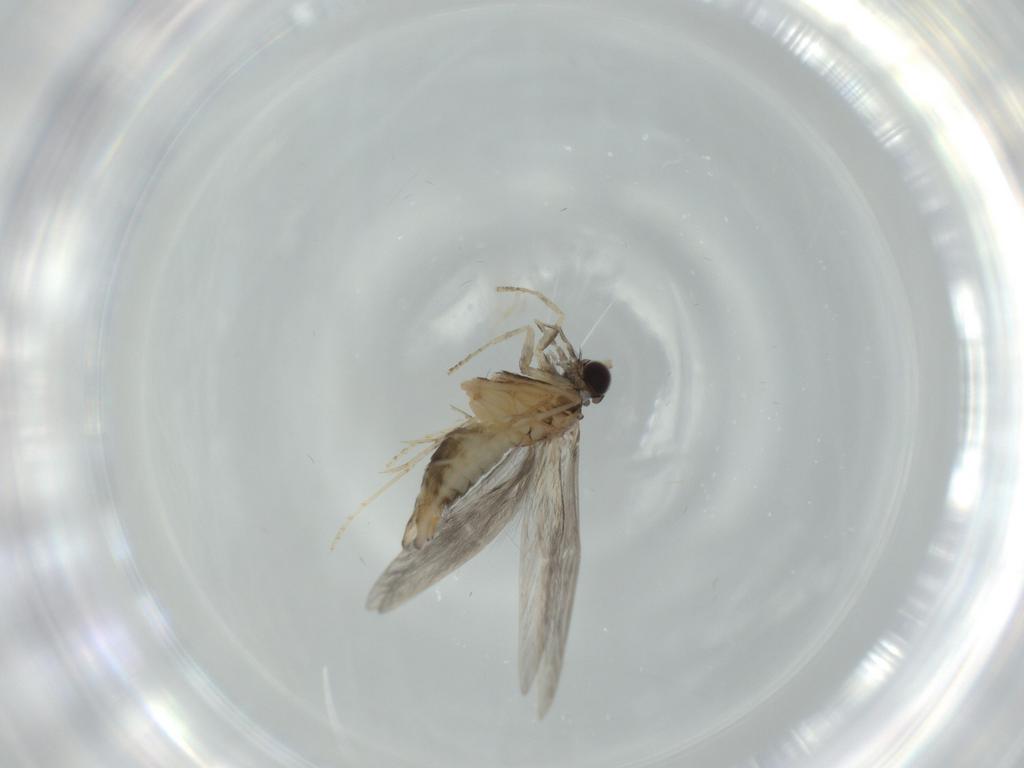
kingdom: Animalia
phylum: Arthropoda
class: Insecta
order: Trichoptera
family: Hydroptilidae
